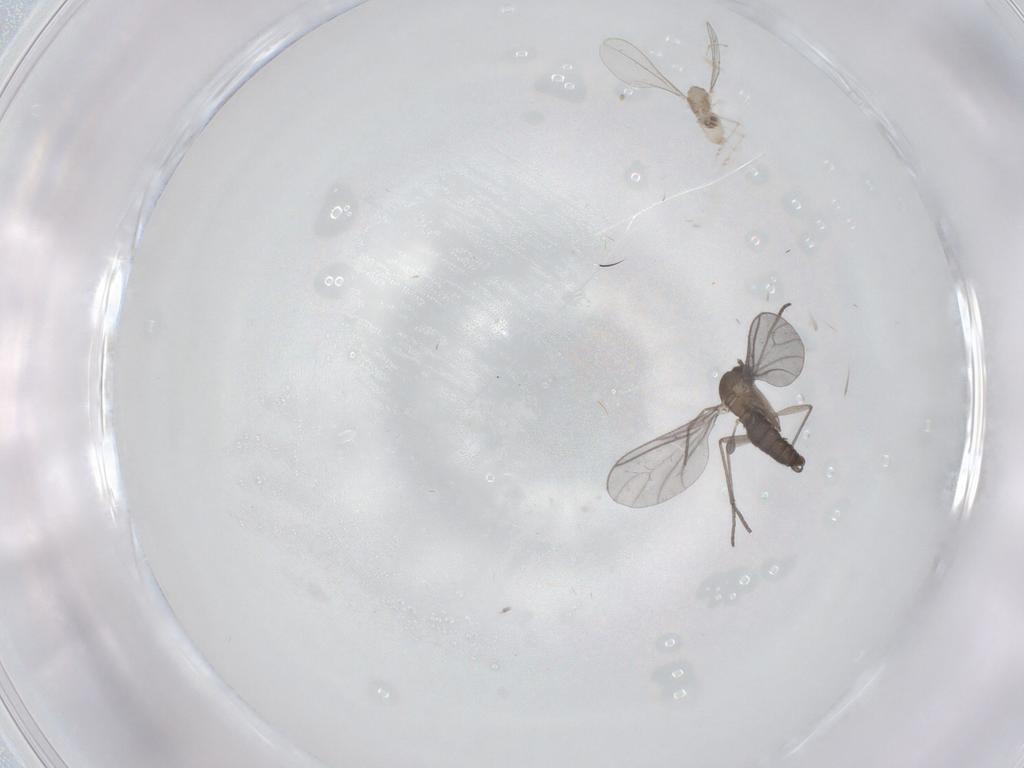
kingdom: Animalia
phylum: Arthropoda
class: Insecta
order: Diptera
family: Cecidomyiidae
